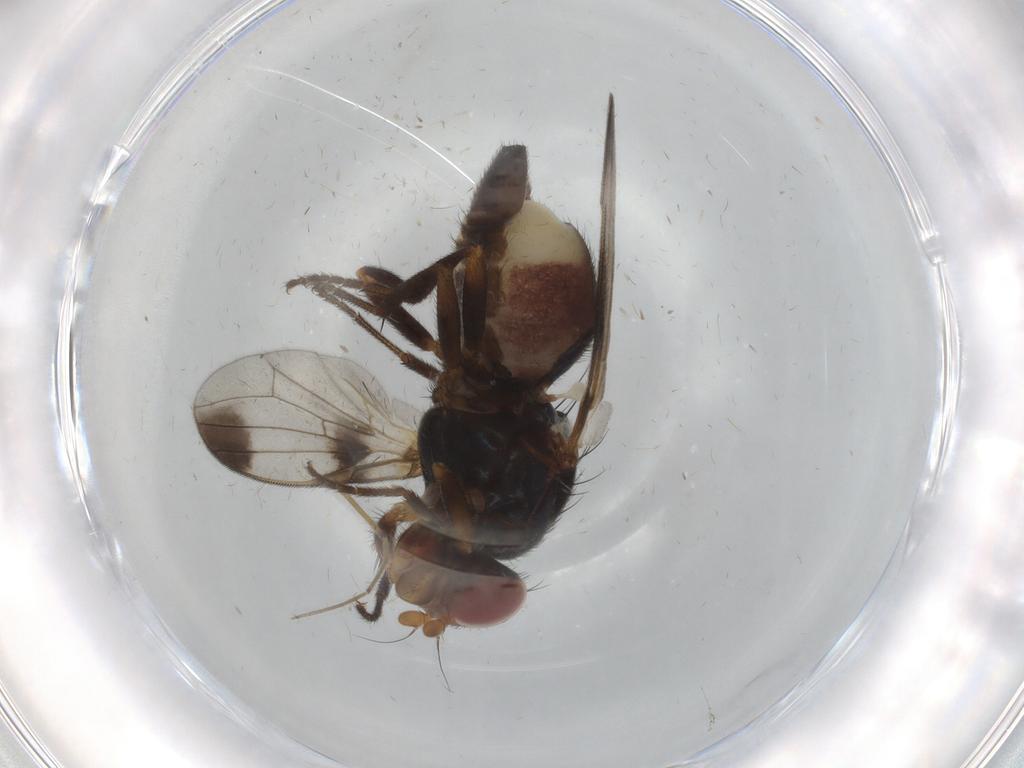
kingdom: Animalia
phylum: Arthropoda
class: Insecta
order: Diptera
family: Ulidiidae
